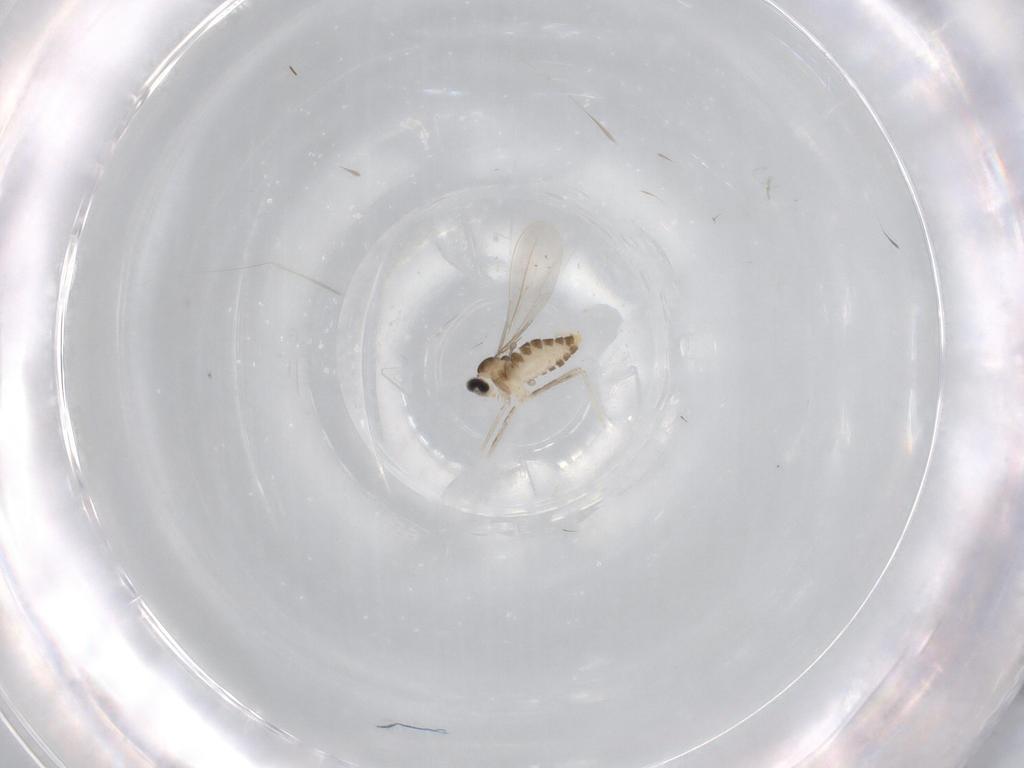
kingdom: Animalia
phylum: Arthropoda
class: Insecta
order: Diptera
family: Cecidomyiidae
